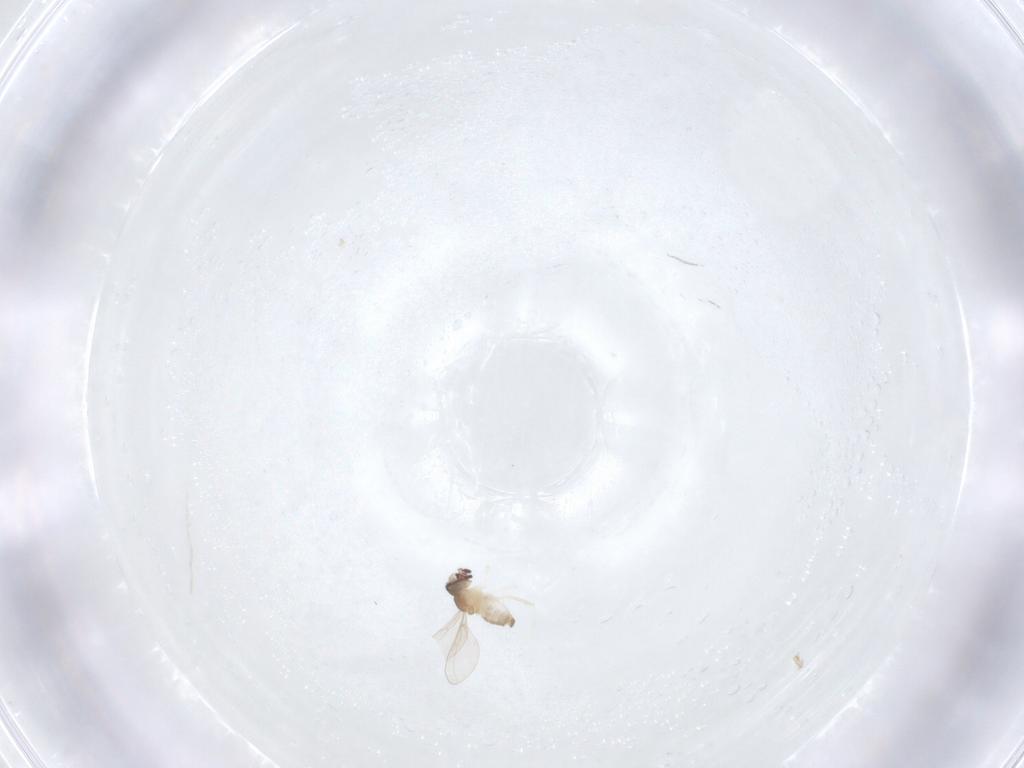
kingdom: Animalia
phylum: Arthropoda
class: Insecta
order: Diptera
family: Cecidomyiidae
